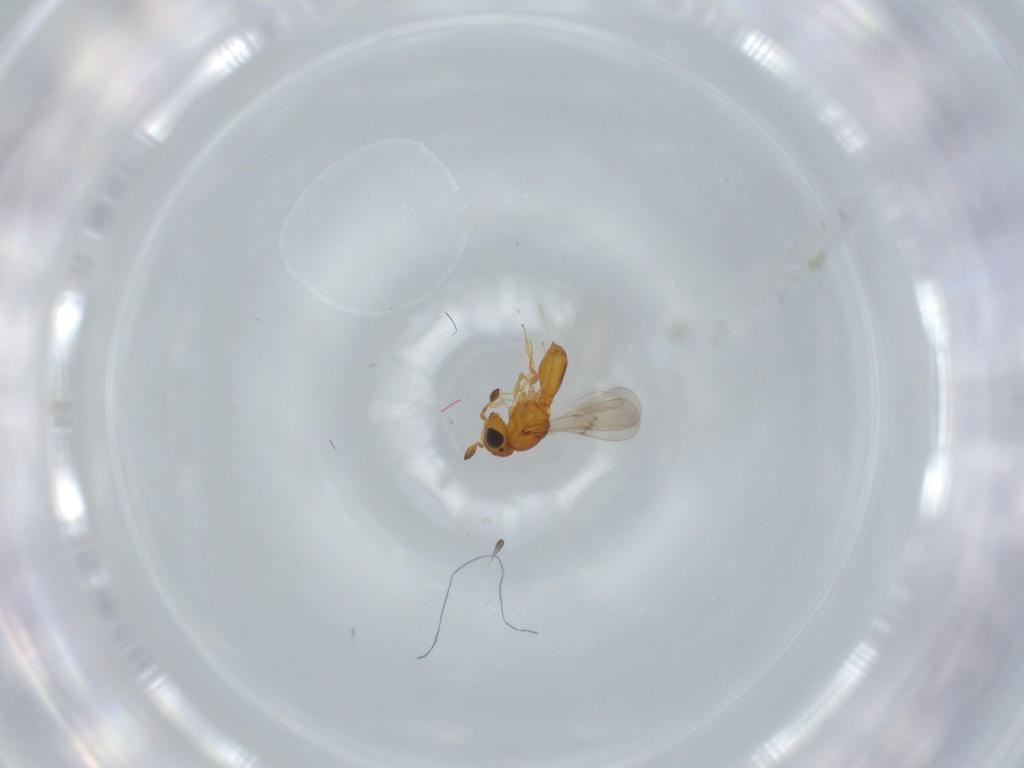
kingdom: Animalia
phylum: Arthropoda
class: Insecta
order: Hymenoptera
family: Scelionidae
